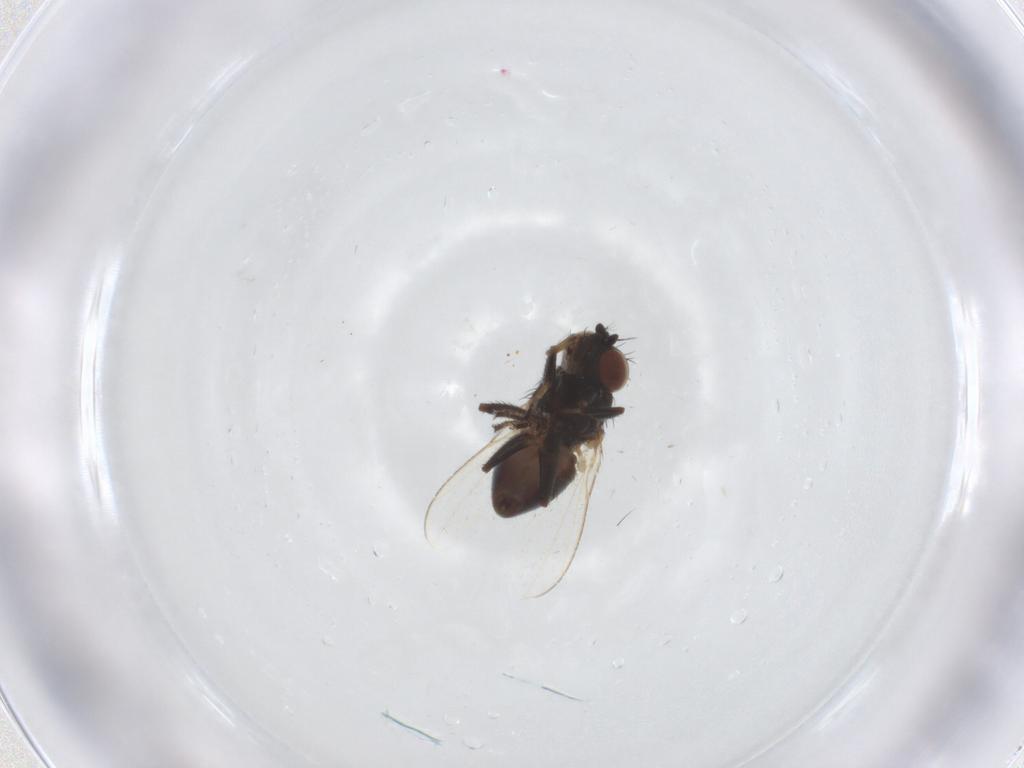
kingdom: Animalia
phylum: Arthropoda
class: Insecta
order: Diptera
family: Ephydridae
